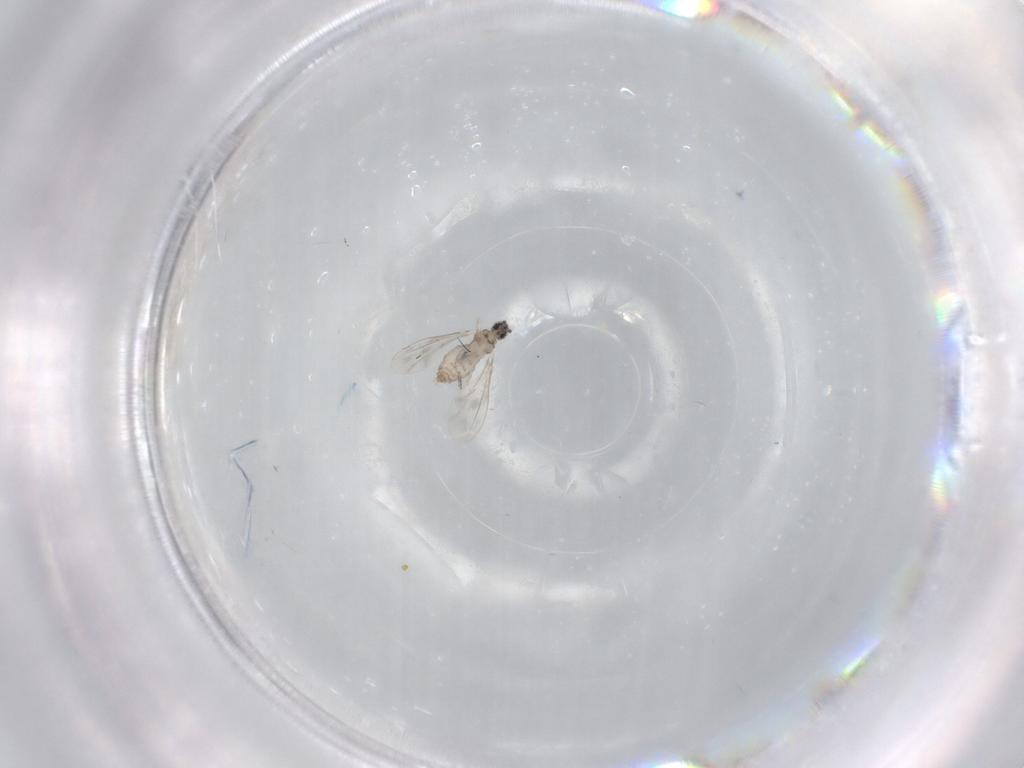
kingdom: Animalia
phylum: Arthropoda
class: Insecta
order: Diptera
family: Cecidomyiidae
